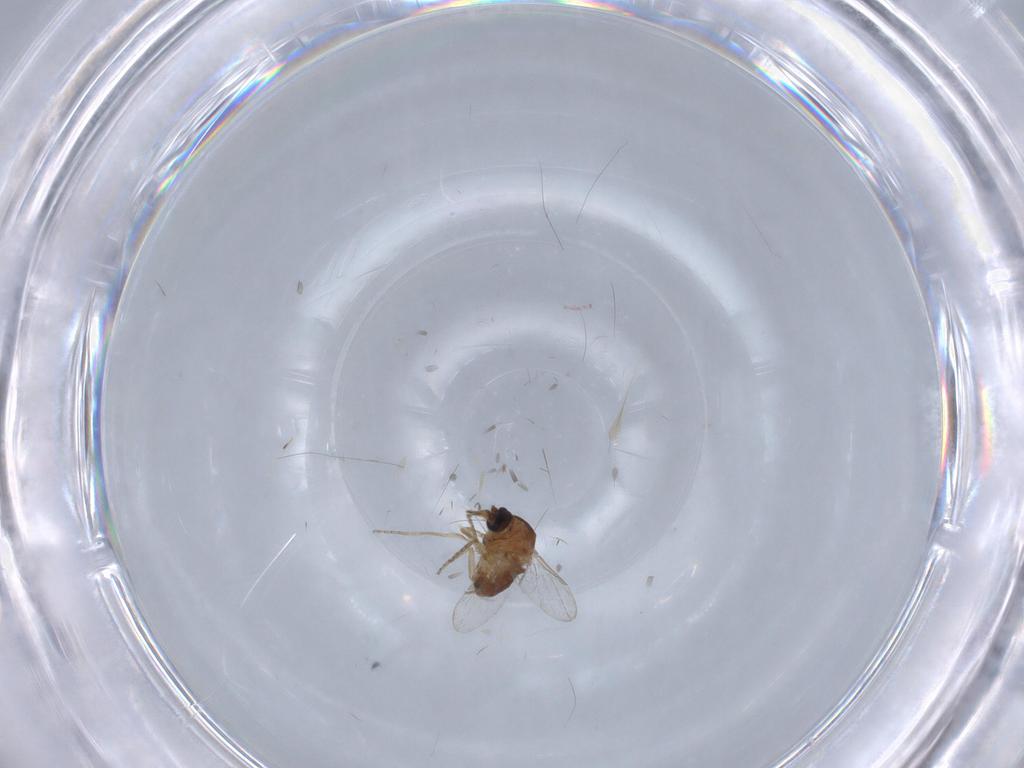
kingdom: Animalia
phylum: Arthropoda
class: Insecta
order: Diptera
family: Ceratopogonidae
